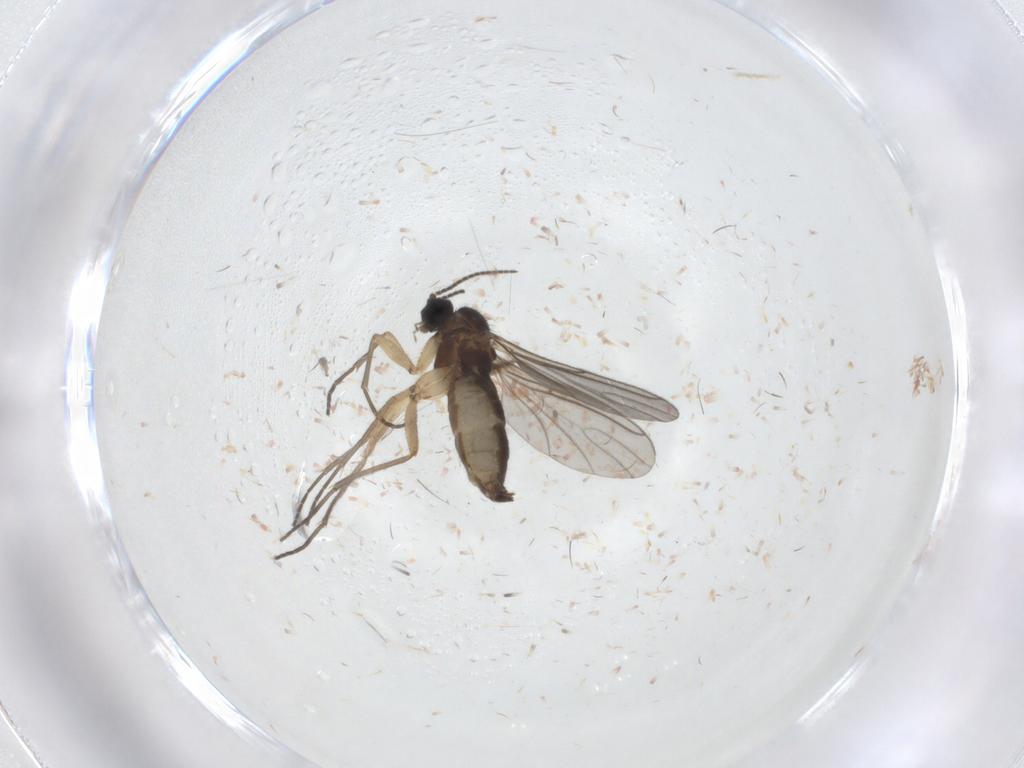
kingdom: Animalia
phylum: Arthropoda
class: Insecta
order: Diptera
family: Sciaridae
